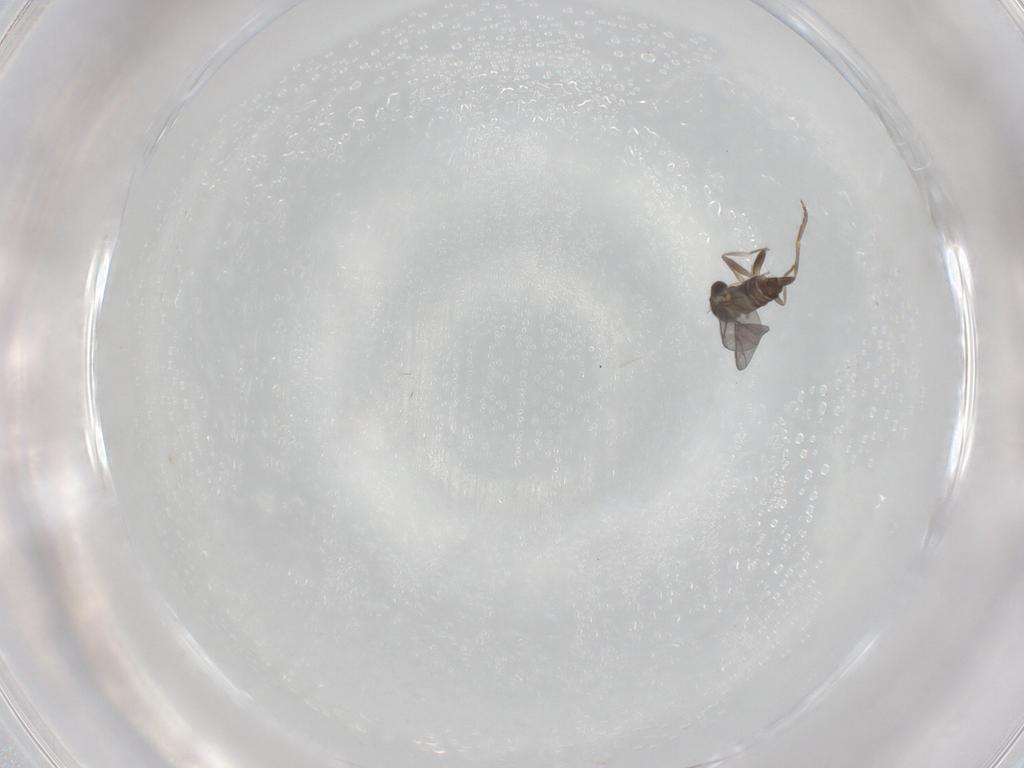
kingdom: Animalia
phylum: Arthropoda
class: Insecta
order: Diptera
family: Phoridae
